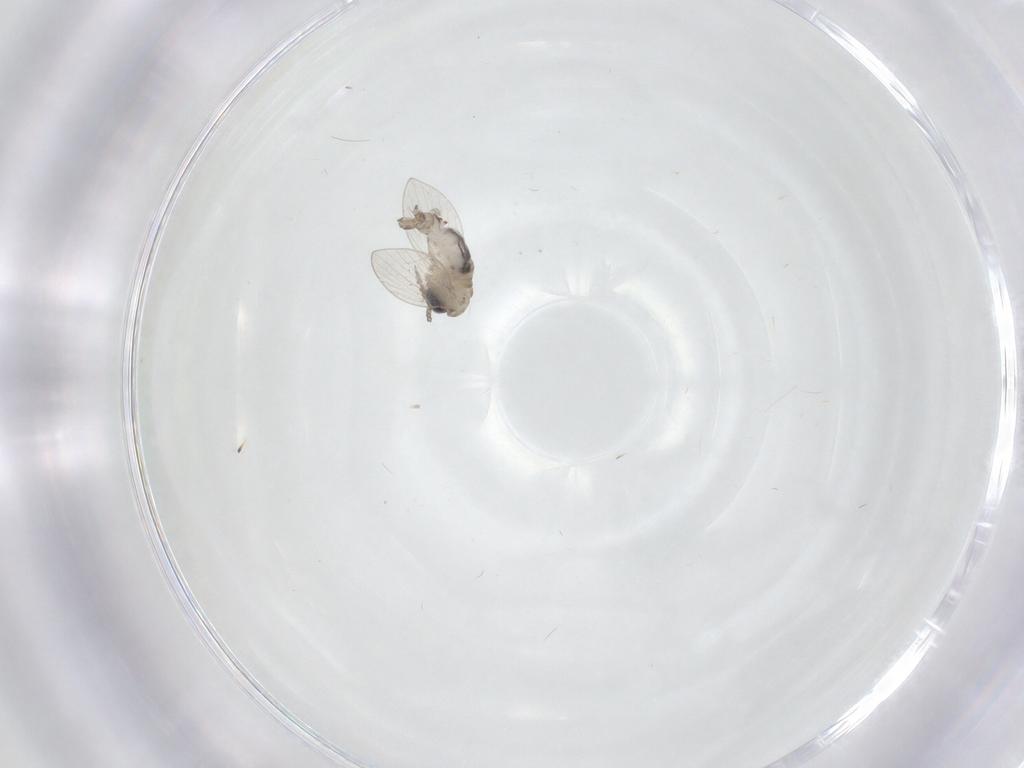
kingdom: Animalia
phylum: Arthropoda
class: Insecta
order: Diptera
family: Psychodidae
